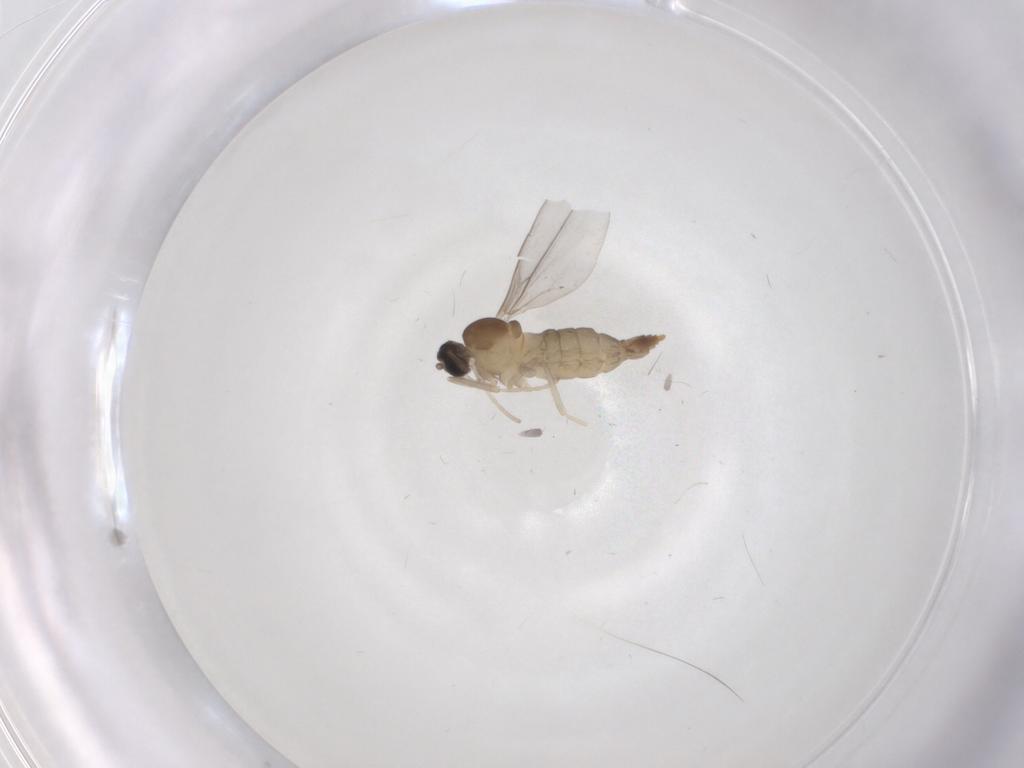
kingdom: Animalia
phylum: Arthropoda
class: Insecta
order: Diptera
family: Cecidomyiidae
